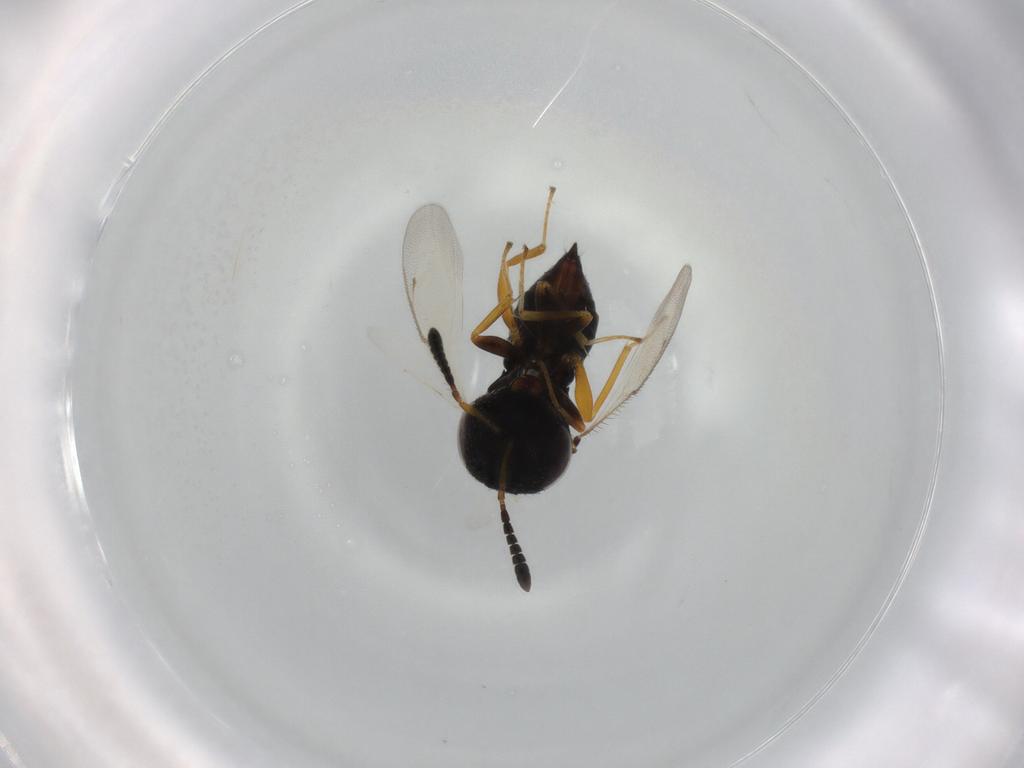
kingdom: Animalia
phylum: Arthropoda
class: Insecta
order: Hymenoptera
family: Pteromalidae
